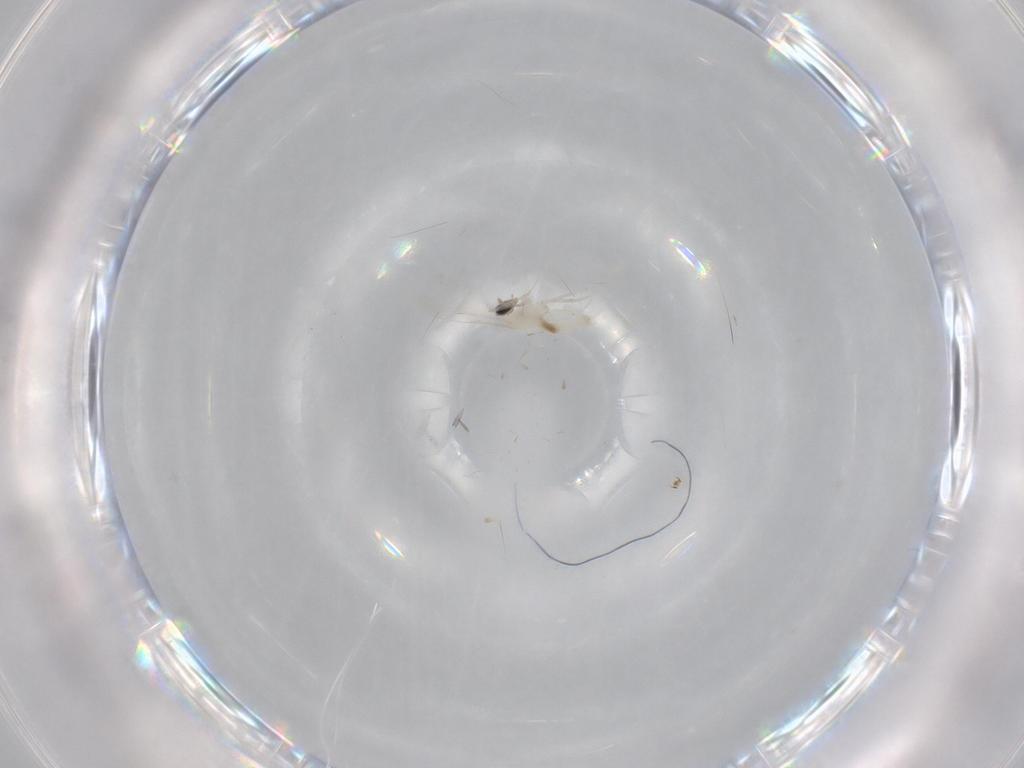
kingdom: Animalia
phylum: Arthropoda
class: Insecta
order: Diptera
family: Cecidomyiidae
